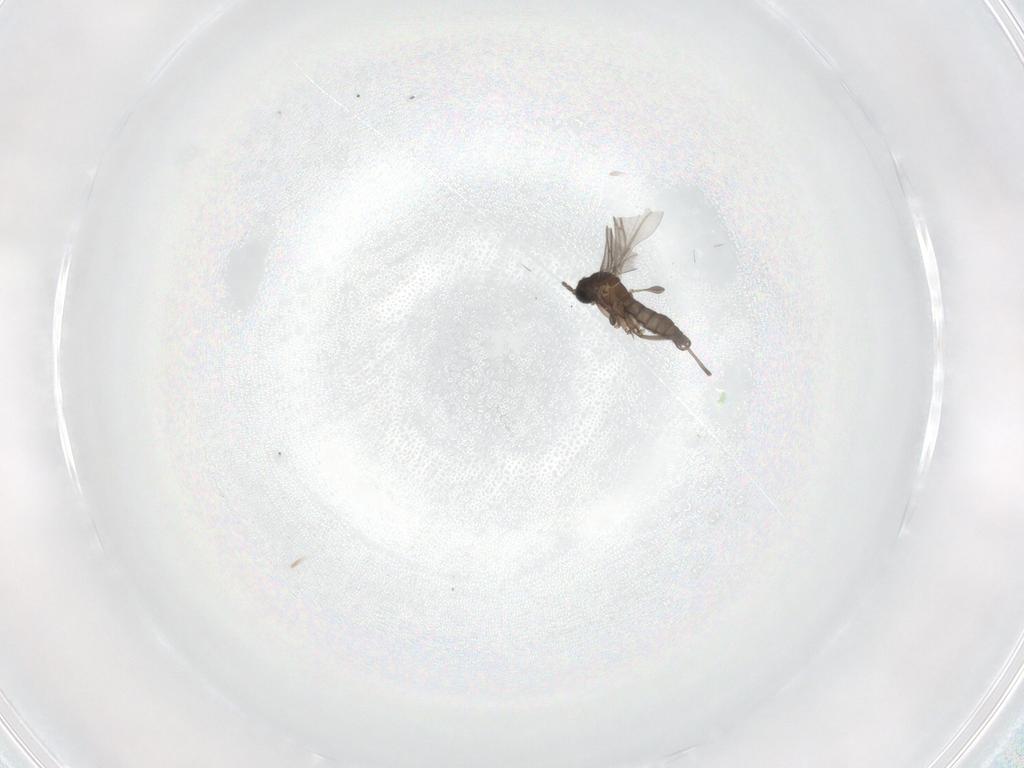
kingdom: Animalia
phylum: Arthropoda
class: Insecta
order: Diptera
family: Sciaridae
